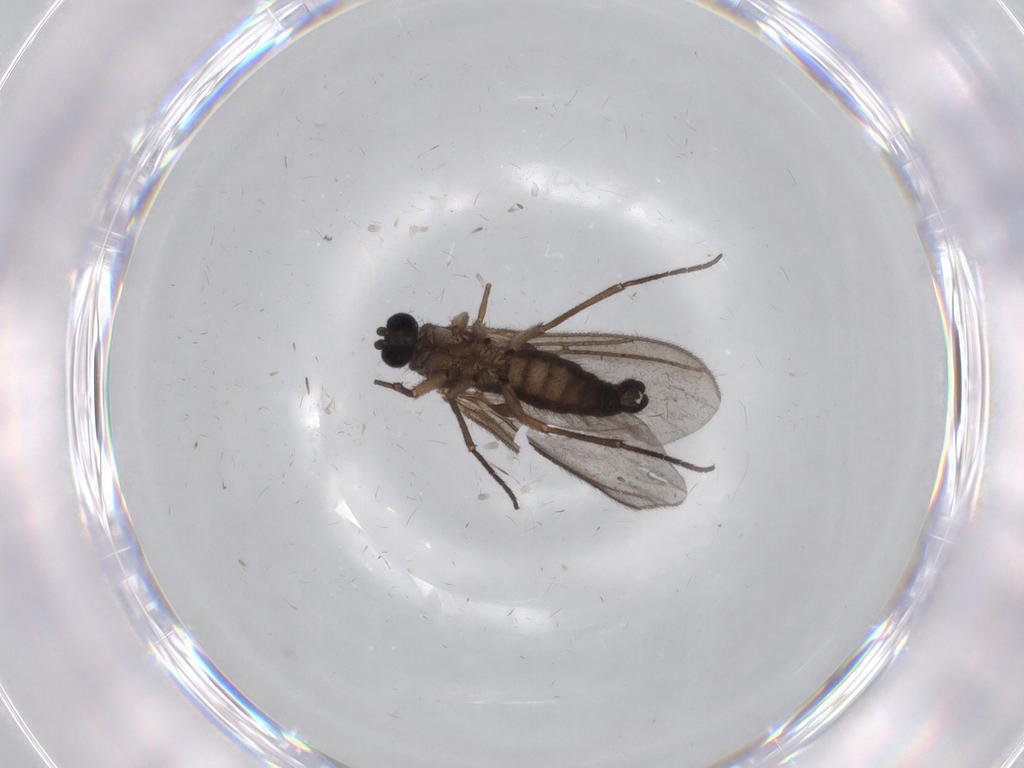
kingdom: Animalia
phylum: Arthropoda
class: Insecta
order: Diptera
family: Sciaridae
